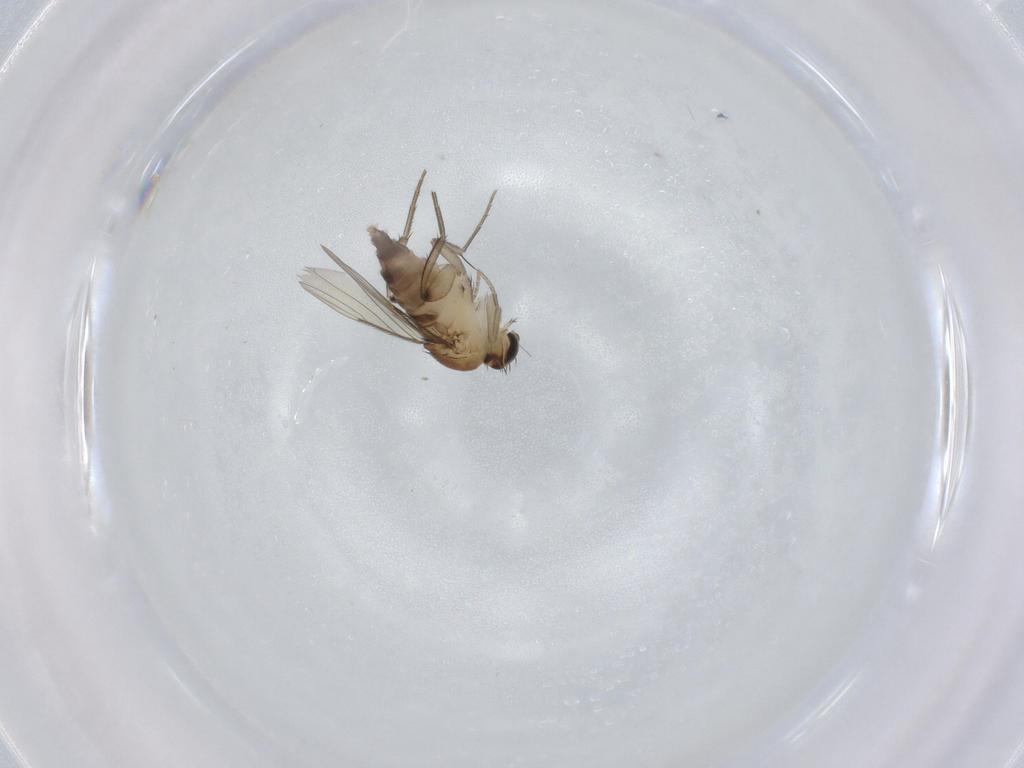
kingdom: Animalia
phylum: Arthropoda
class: Insecta
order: Diptera
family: Phoridae
